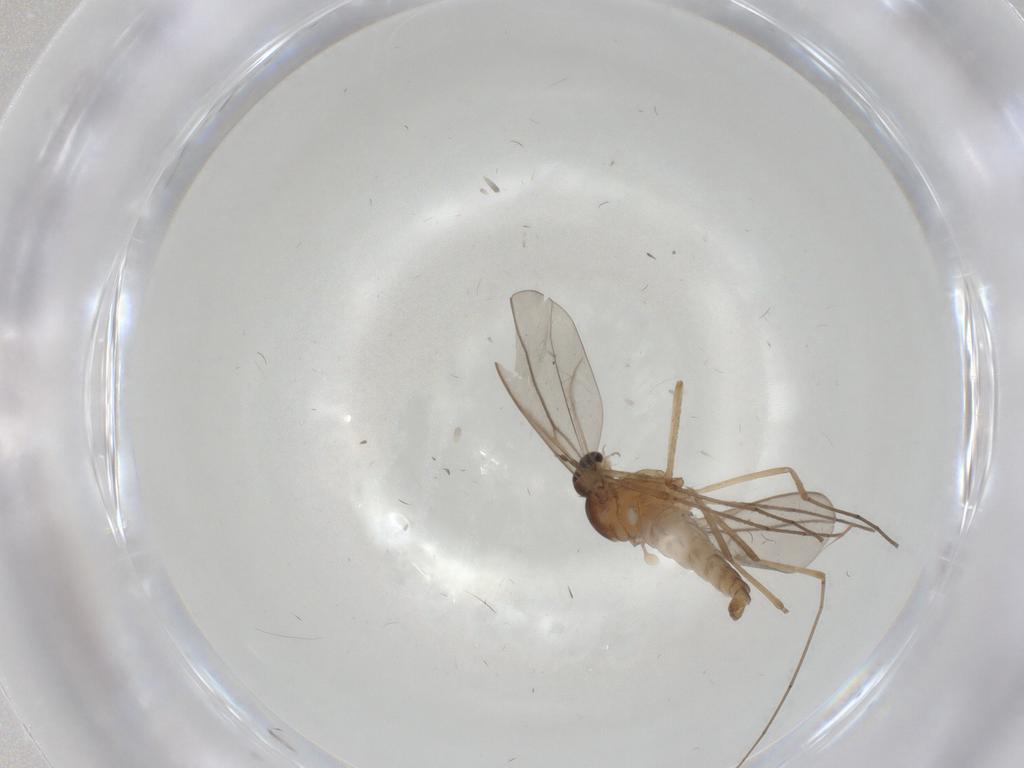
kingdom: Animalia
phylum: Arthropoda
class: Insecta
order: Diptera
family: Cecidomyiidae
